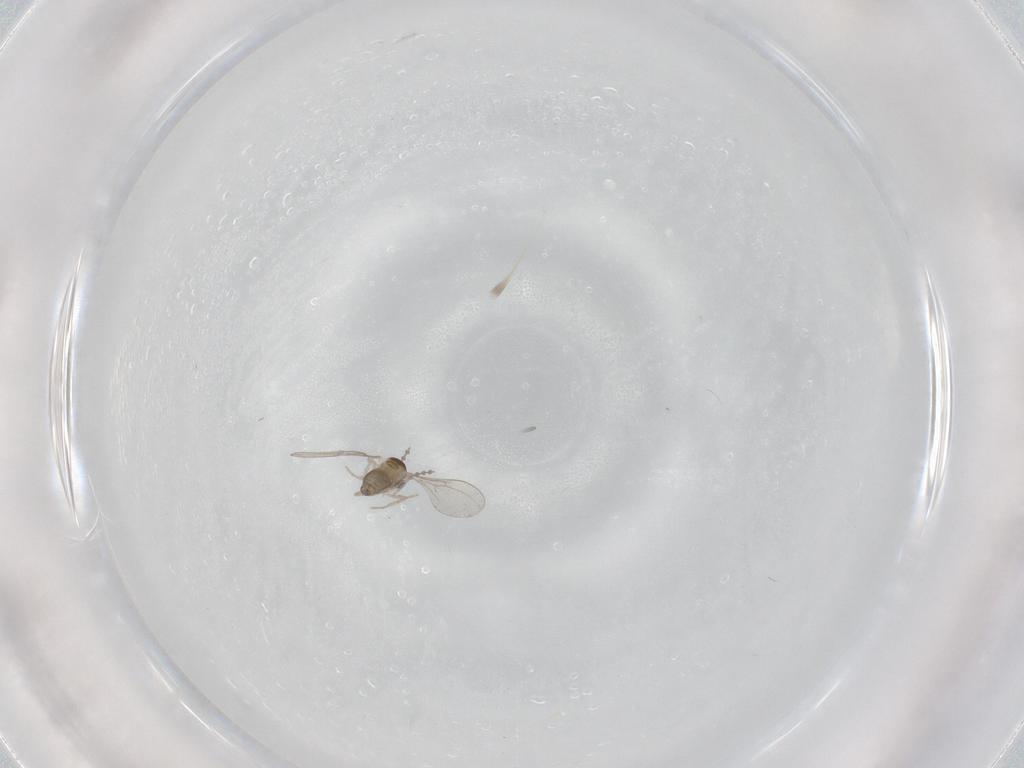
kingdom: Animalia
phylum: Arthropoda
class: Insecta
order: Diptera
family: Cecidomyiidae
